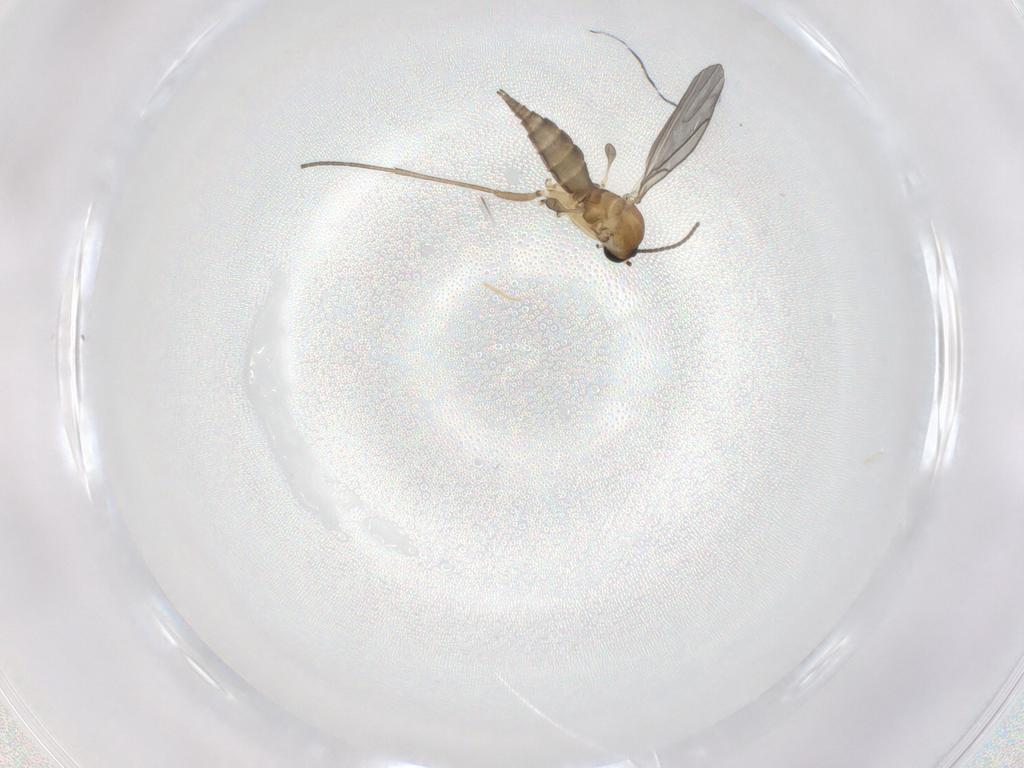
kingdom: Animalia
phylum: Arthropoda
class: Insecta
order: Diptera
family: Sciaridae
